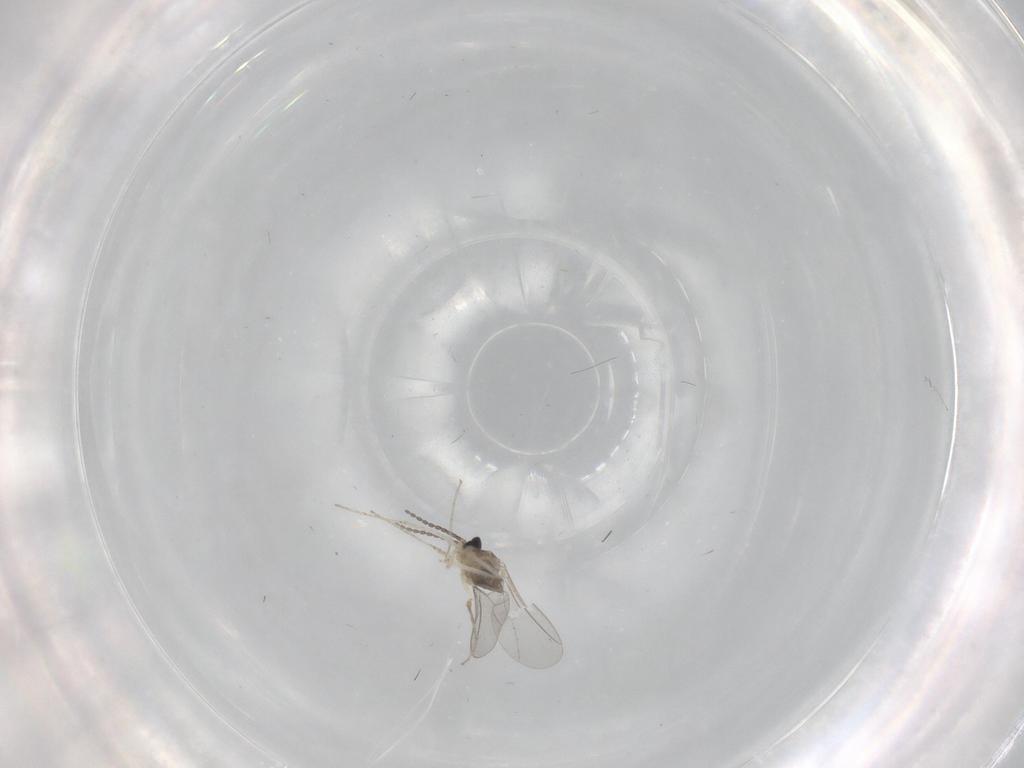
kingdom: Animalia
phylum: Arthropoda
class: Insecta
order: Diptera
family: Cecidomyiidae
